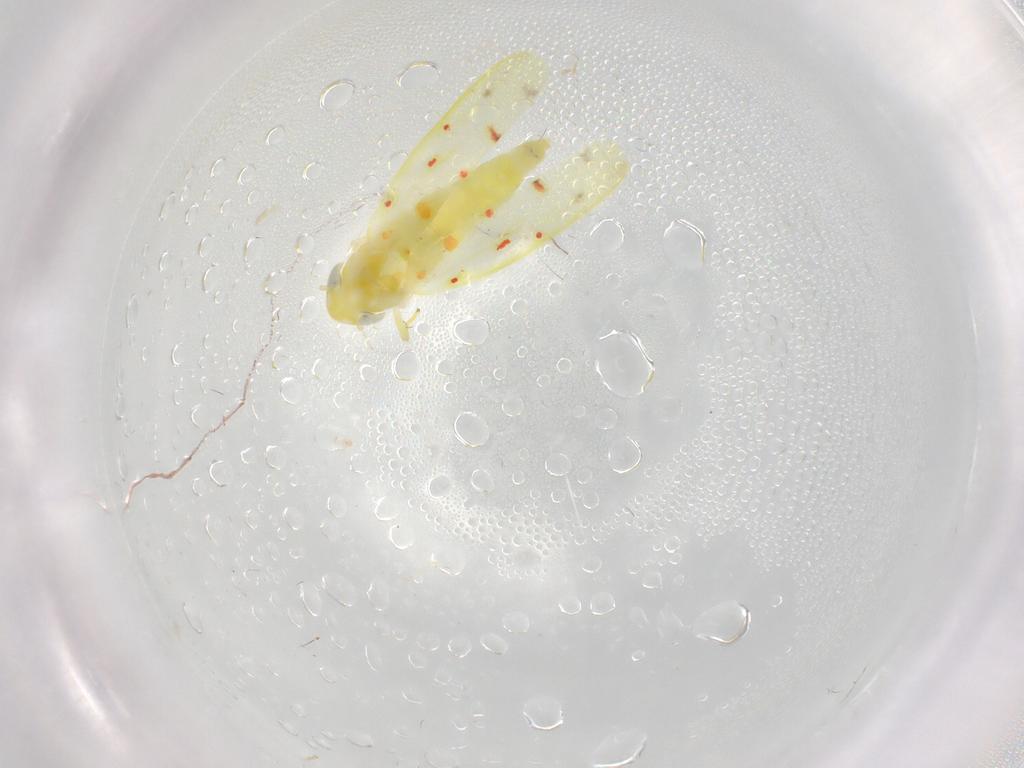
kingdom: Animalia
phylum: Arthropoda
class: Insecta
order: Hemiptera
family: Cicadellidae
